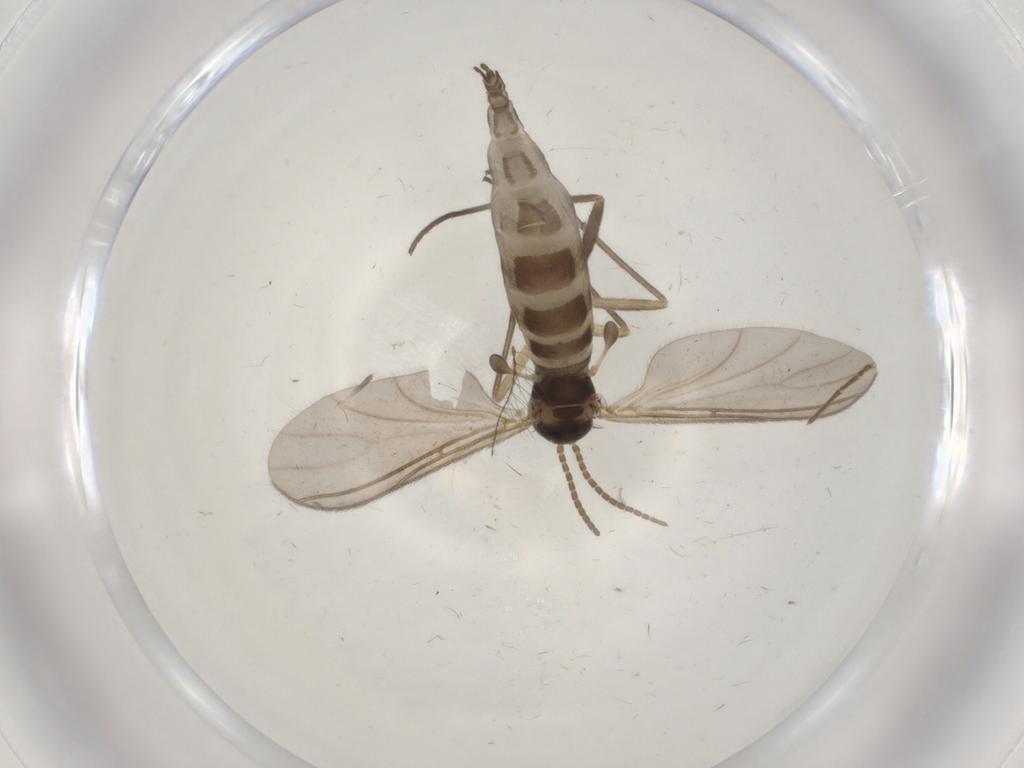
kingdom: Animalia
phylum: Arthropoda
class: Insecta
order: Diptera
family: Sciaridae
